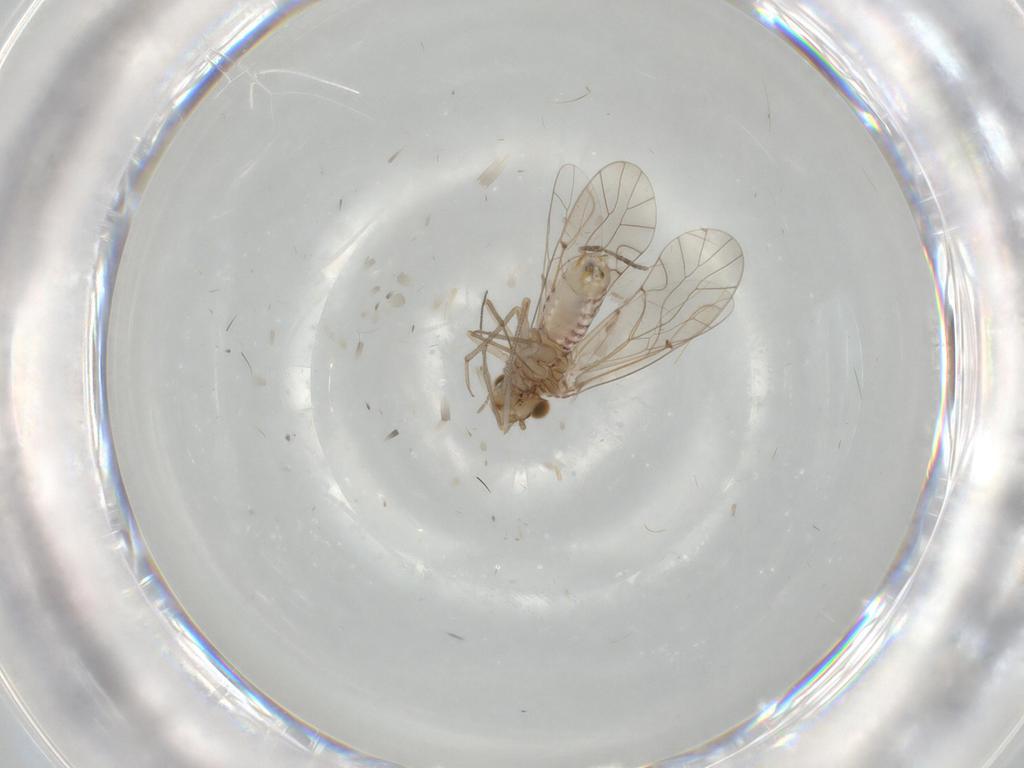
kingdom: Animalia
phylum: Arthropoda
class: Insecta
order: Psocodea
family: Lachesillidae
